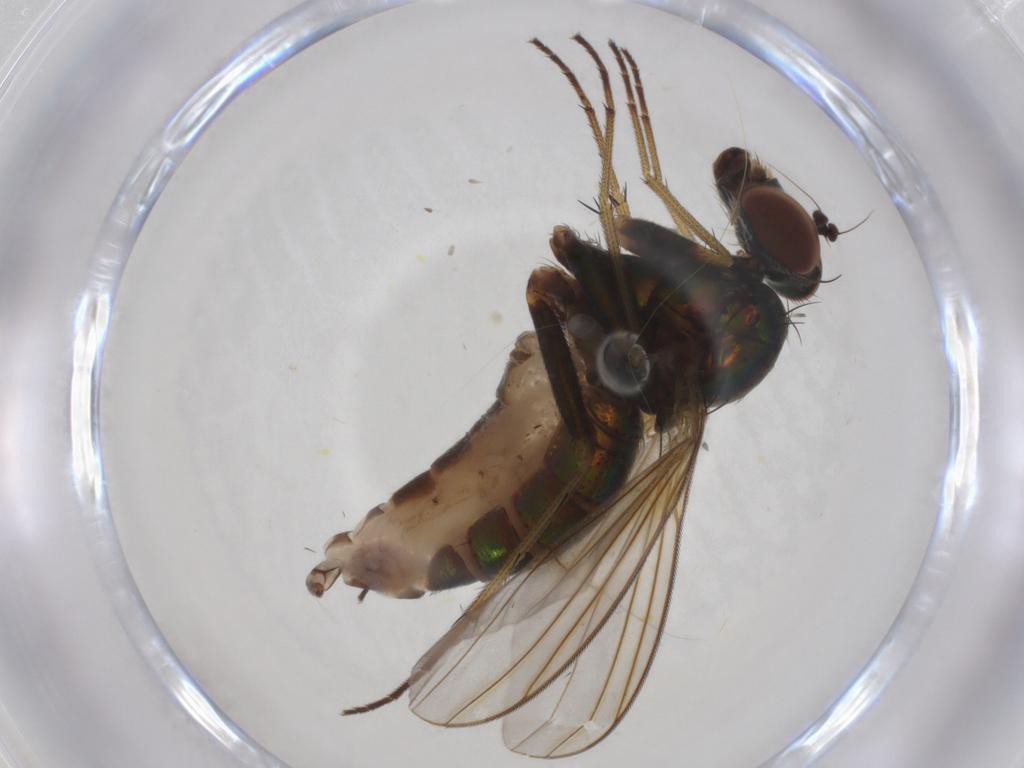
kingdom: Animalia
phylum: Arthropoda
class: Insecta
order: Diptera
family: Dolichopodidae
